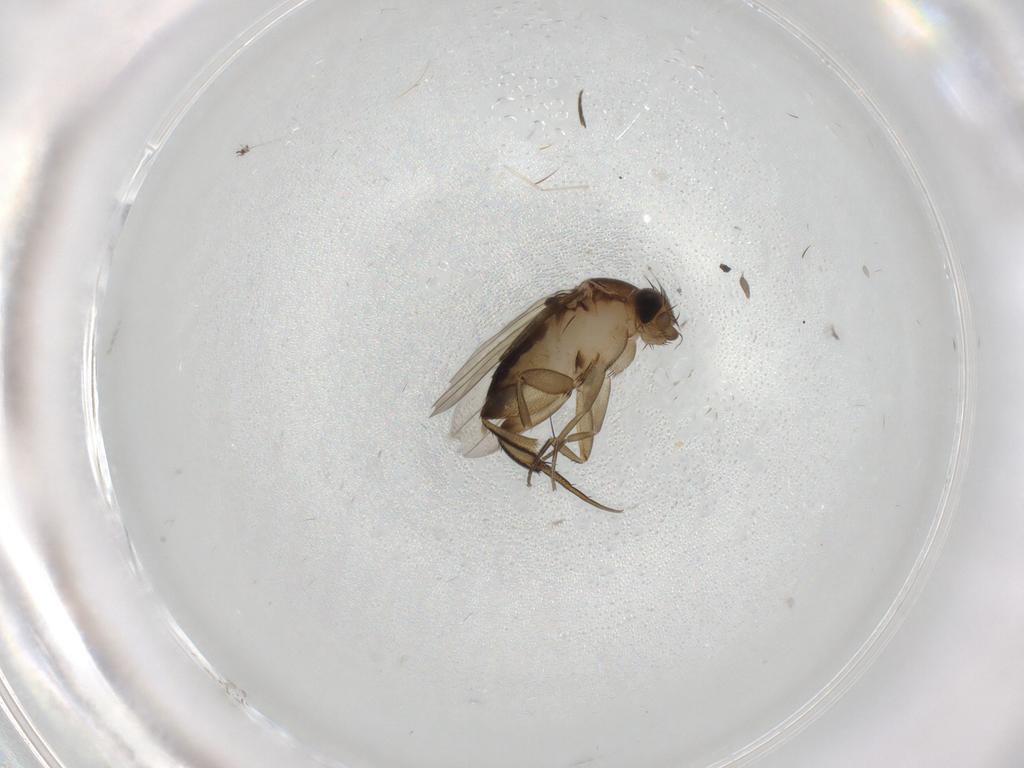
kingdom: Animalia
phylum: Arthropoda
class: Insecta
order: Diptera
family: Phoridae
